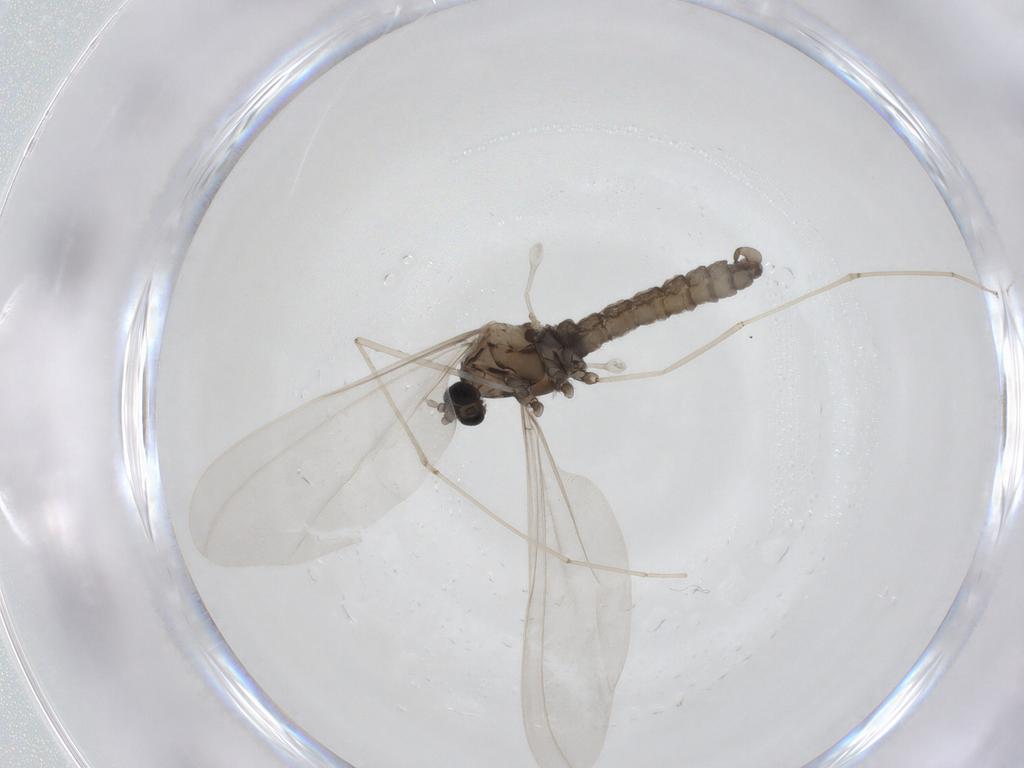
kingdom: Animalia
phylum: Arthropoda
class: Insecta
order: Diptera
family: Cecidomyiidae
